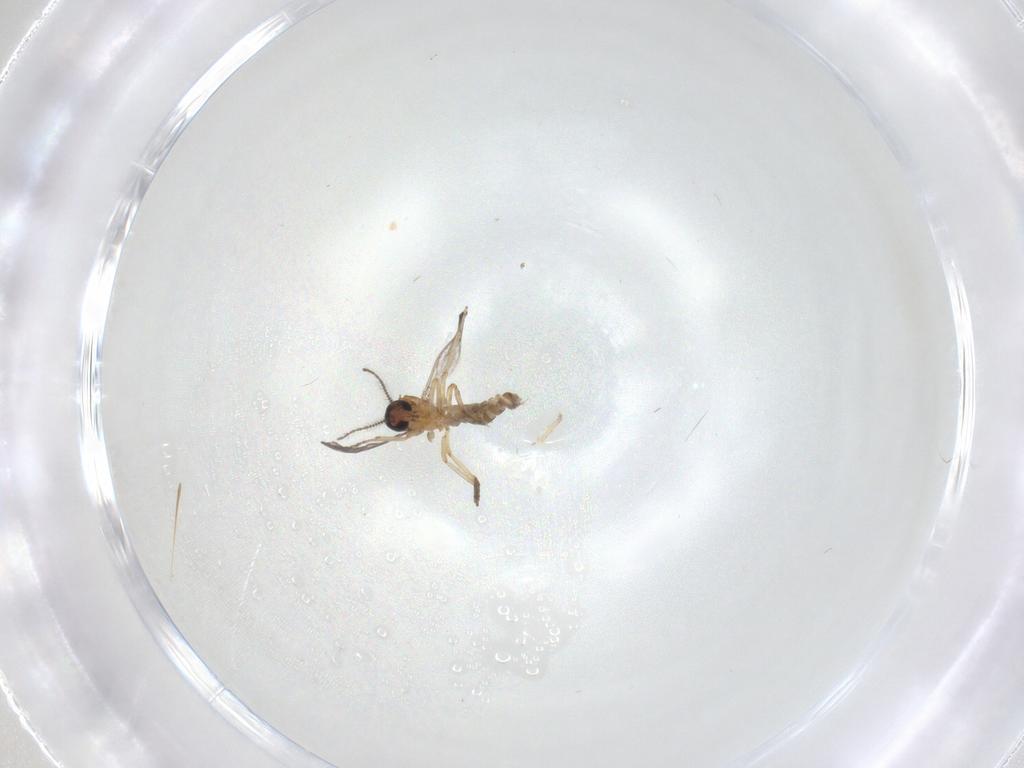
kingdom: Animalia
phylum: Arthropoda
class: Insecta
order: Diptera
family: Ceratopogonidae
